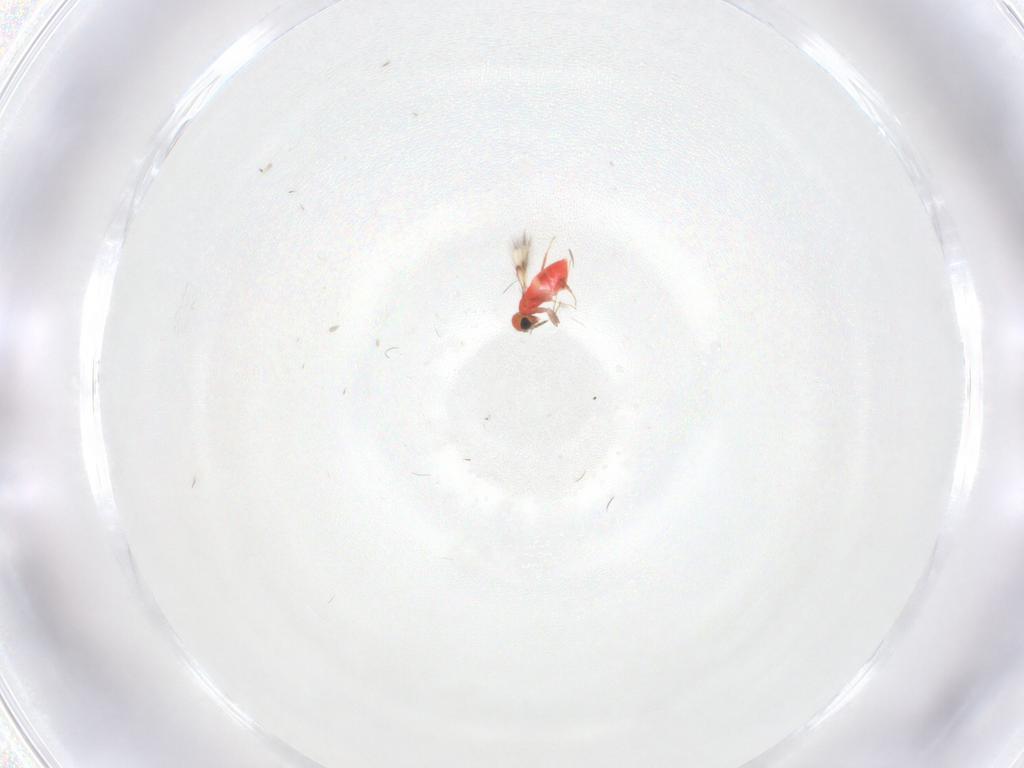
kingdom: Animalia
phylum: Arthropoda
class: Insecta
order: Hymenoptera
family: Trichogrammatidae
